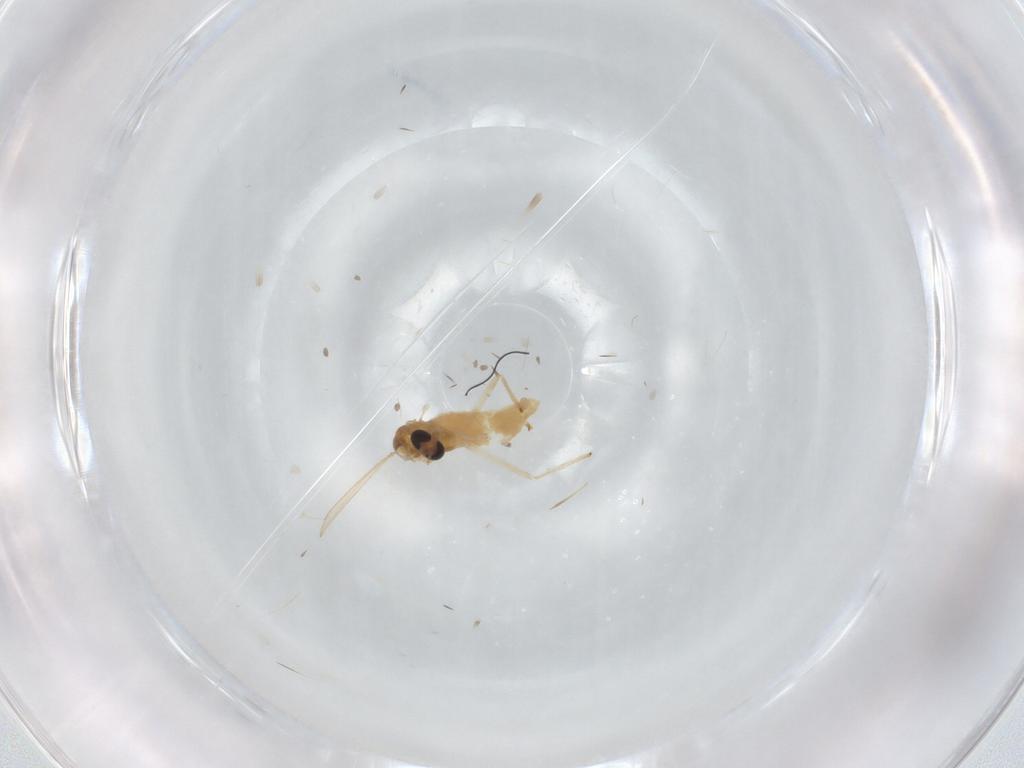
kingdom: Animalia
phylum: Arthropoda
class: Insecta
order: Diptera
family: Chironomidae
